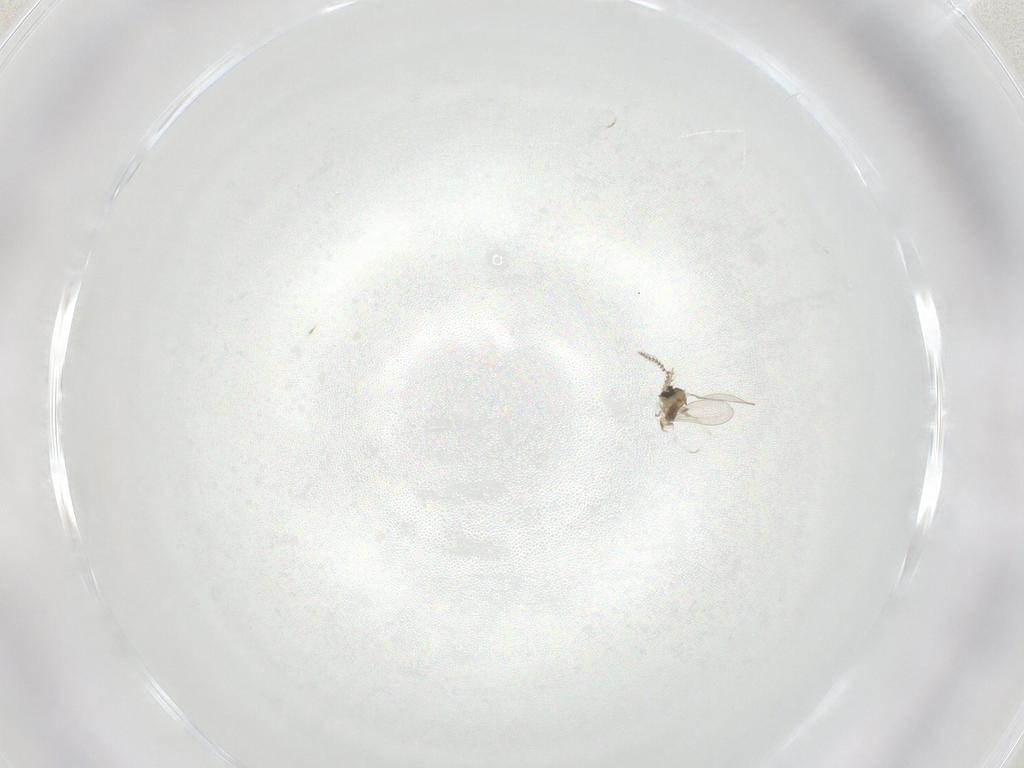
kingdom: Animalia
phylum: Arthropoda
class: Insecta
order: Diptera
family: Cecidomyiidae
